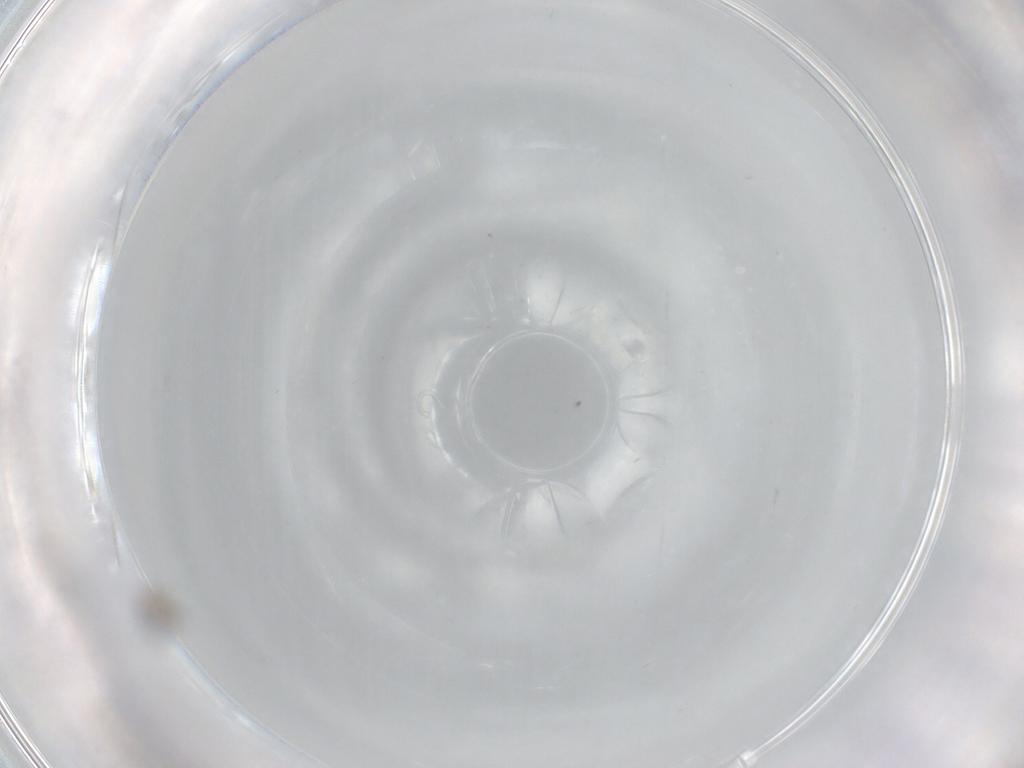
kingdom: Animalia
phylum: Arthropoda
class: Insecta
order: Diptera
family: Cecidomyiidae
